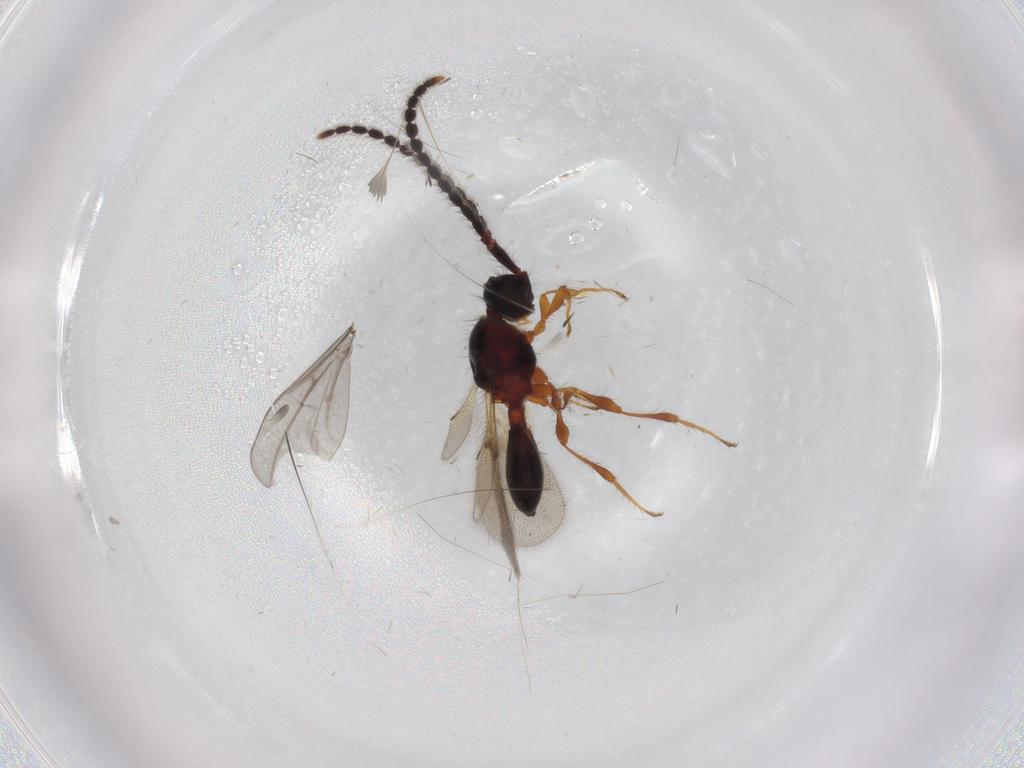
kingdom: Animalia
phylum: Arthropoda
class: Insecta
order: Hymenoptera
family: Diapriidae
